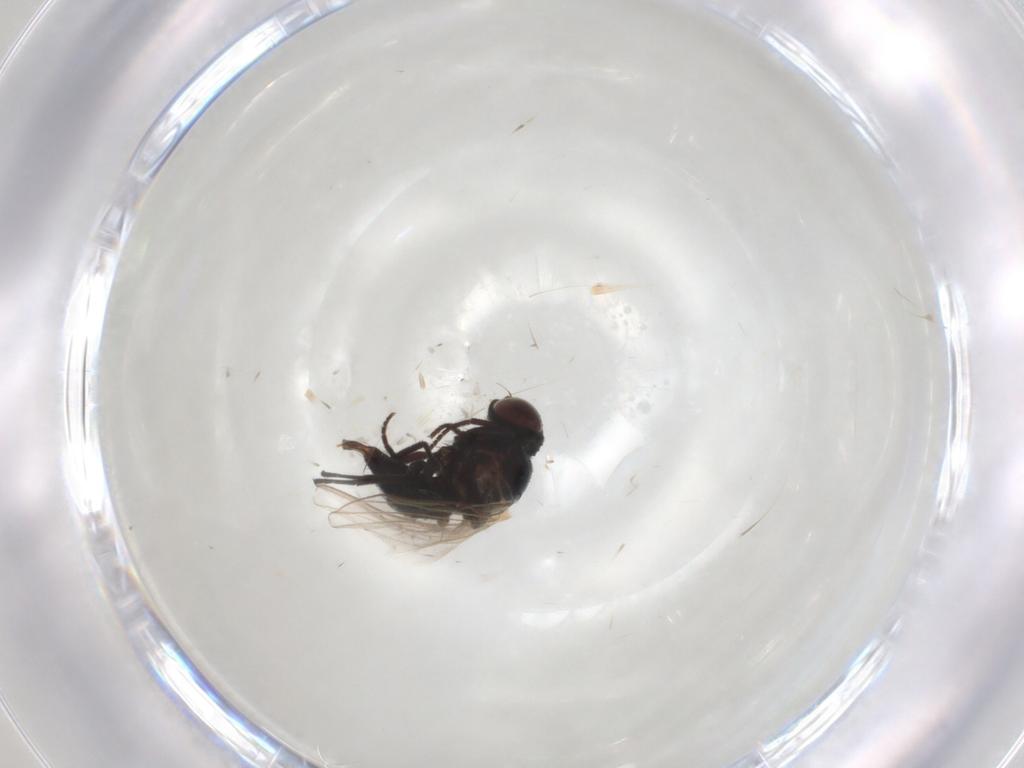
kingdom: Animalia
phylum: Arthropoda
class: Insecta
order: Diptera
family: Agromyzidae
